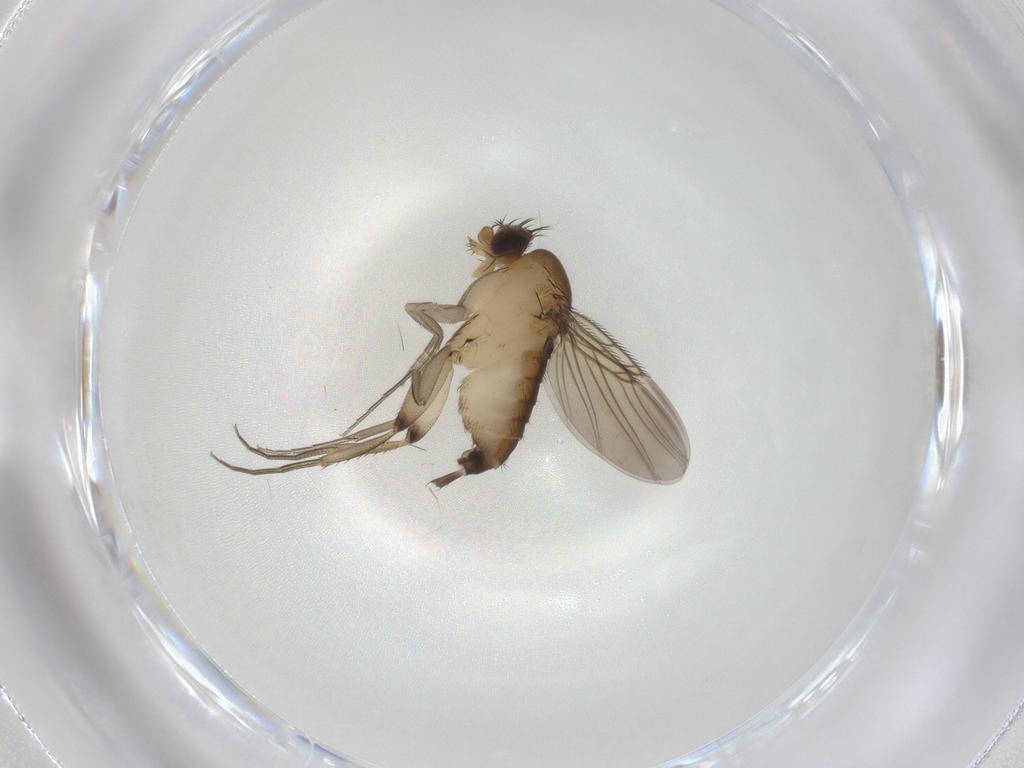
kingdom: Animalia
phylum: Arthropoda
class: Insecta
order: Diptera
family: Phoridae
